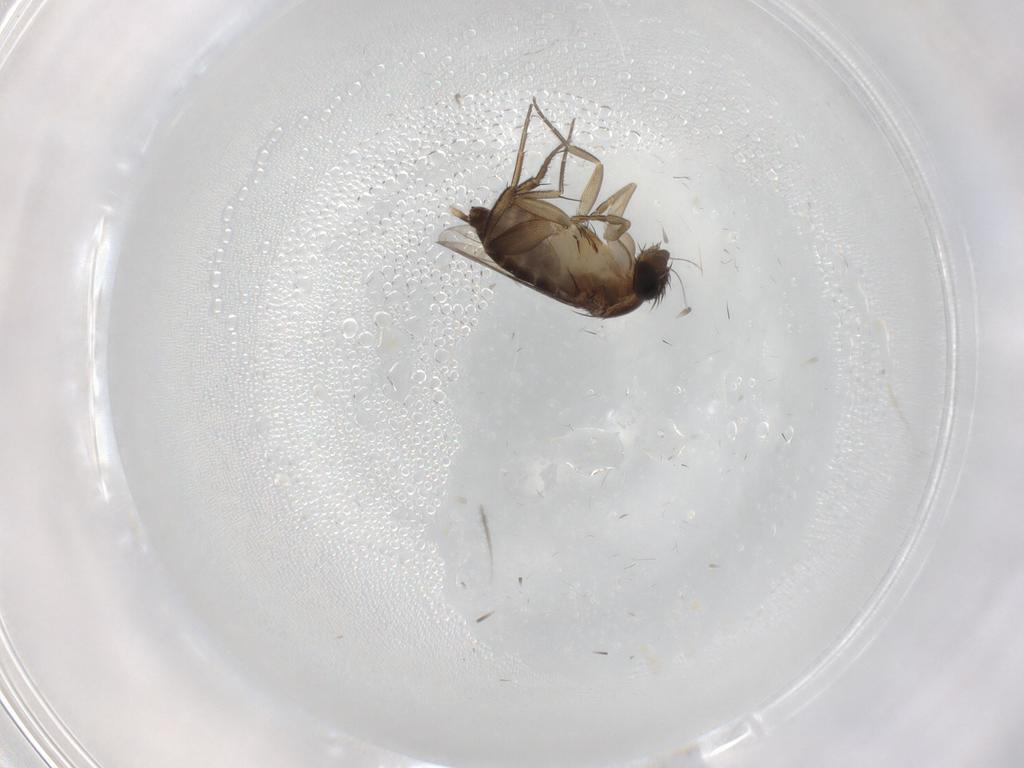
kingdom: Animalia
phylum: Arthropoda
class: Insecta
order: Diptera
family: Phoridae
